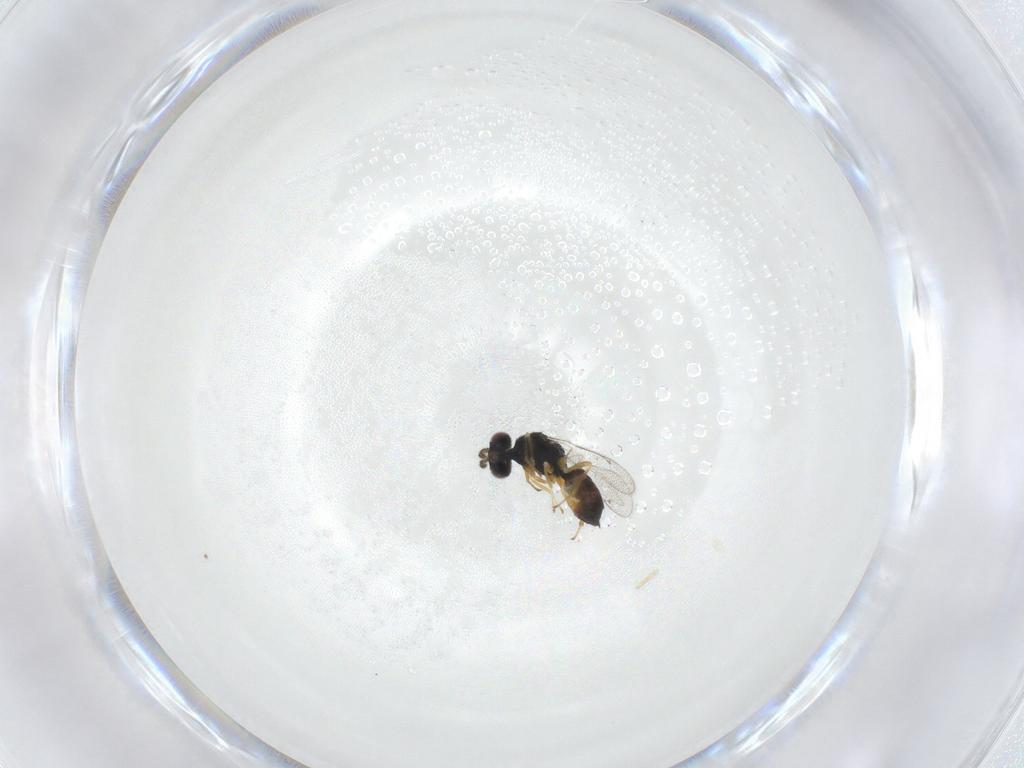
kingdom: Animalia
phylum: Arthropoda
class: Insecta
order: Hymenoptera
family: Eulophidae
